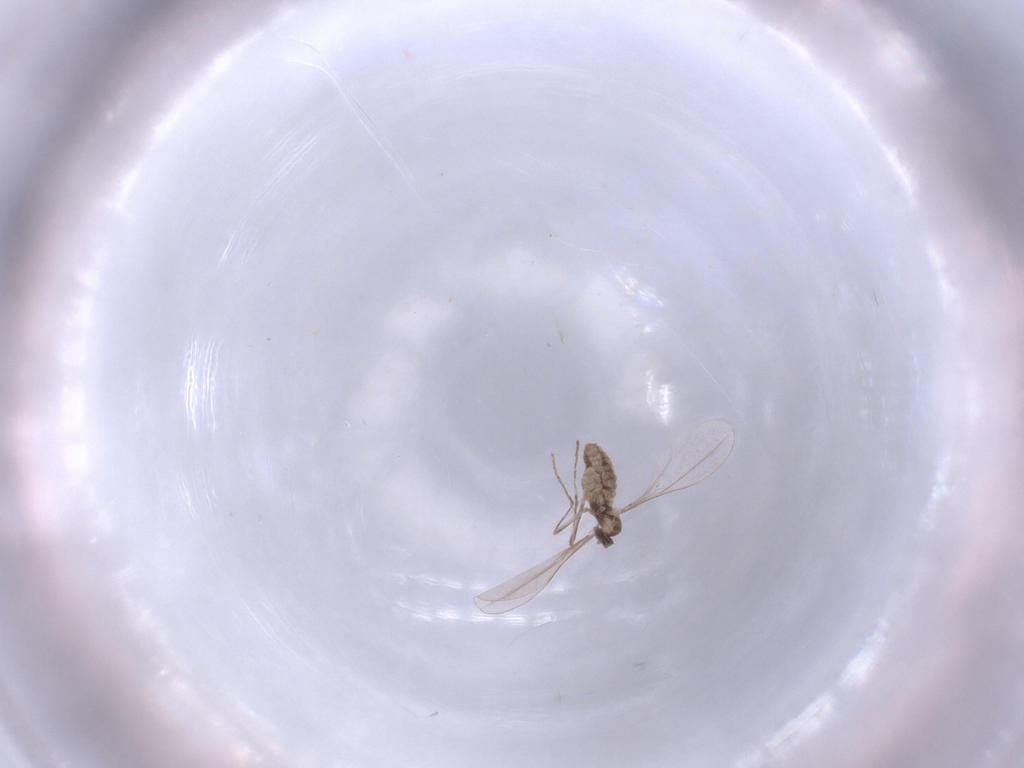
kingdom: Animalia
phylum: Arthropoda
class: Insecta
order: Diptera
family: Cecidomyiidae
